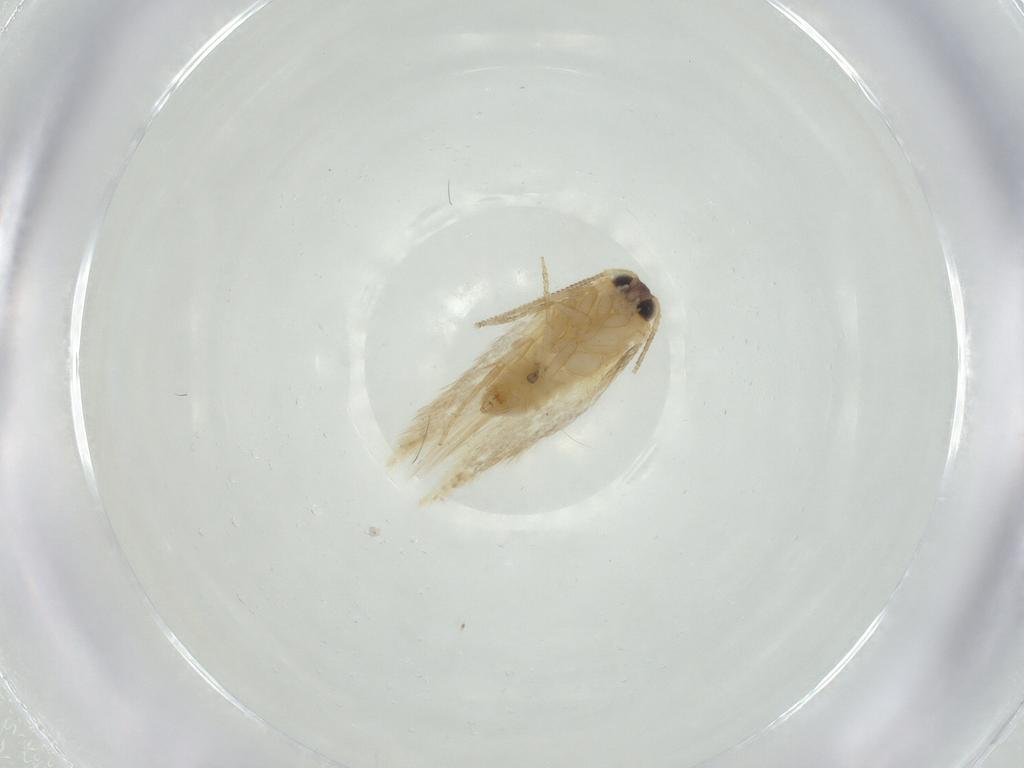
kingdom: Animalia
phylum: Arthropoda
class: Insecta
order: Lepidoptera
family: Nepticulidae
